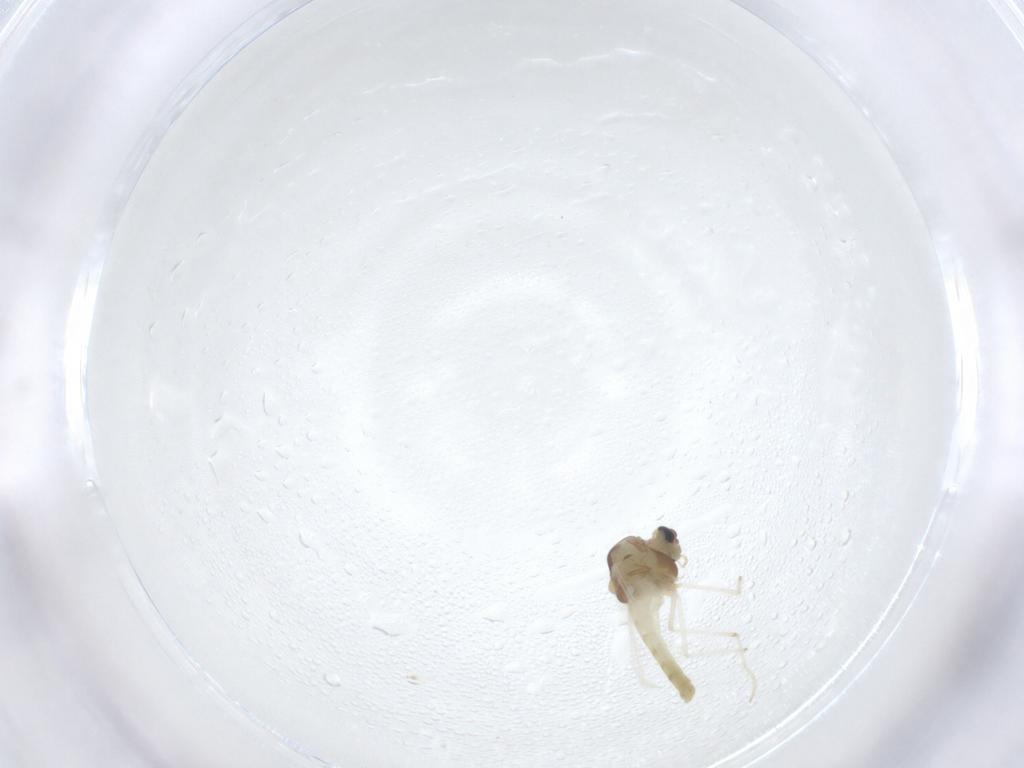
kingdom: Animalia
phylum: Arthropoda
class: Insecta
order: Diptera
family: Chironomidae
